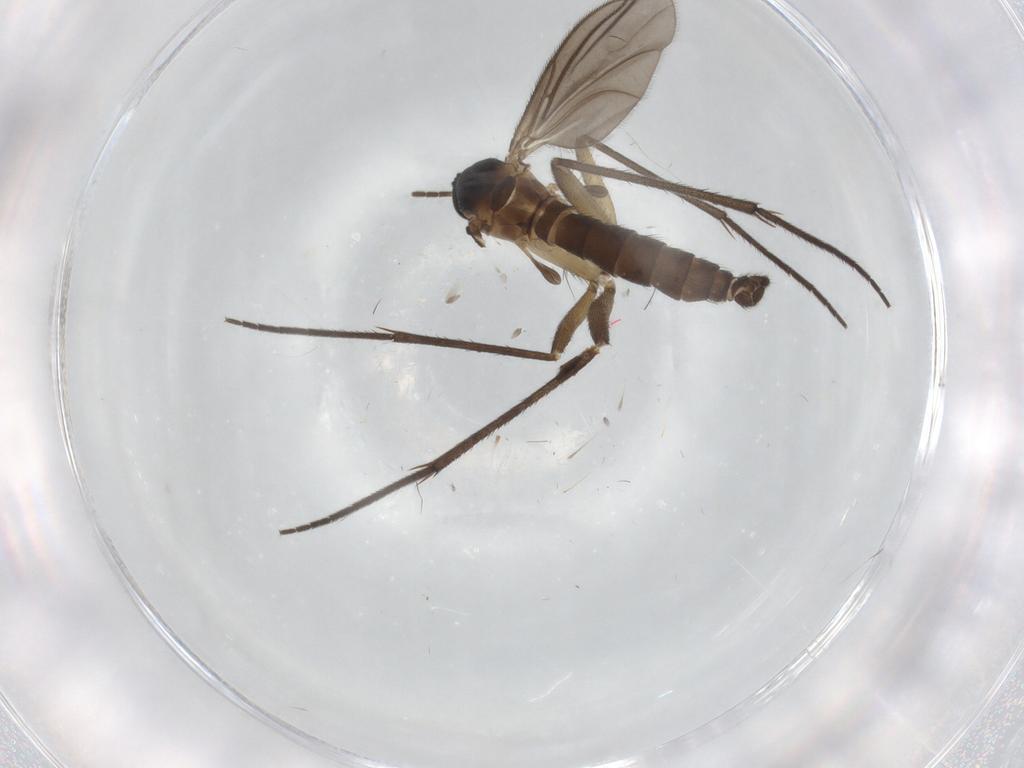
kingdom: Animalia
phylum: Arthropoda
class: Insecta
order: Diptera
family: Sciaridae
